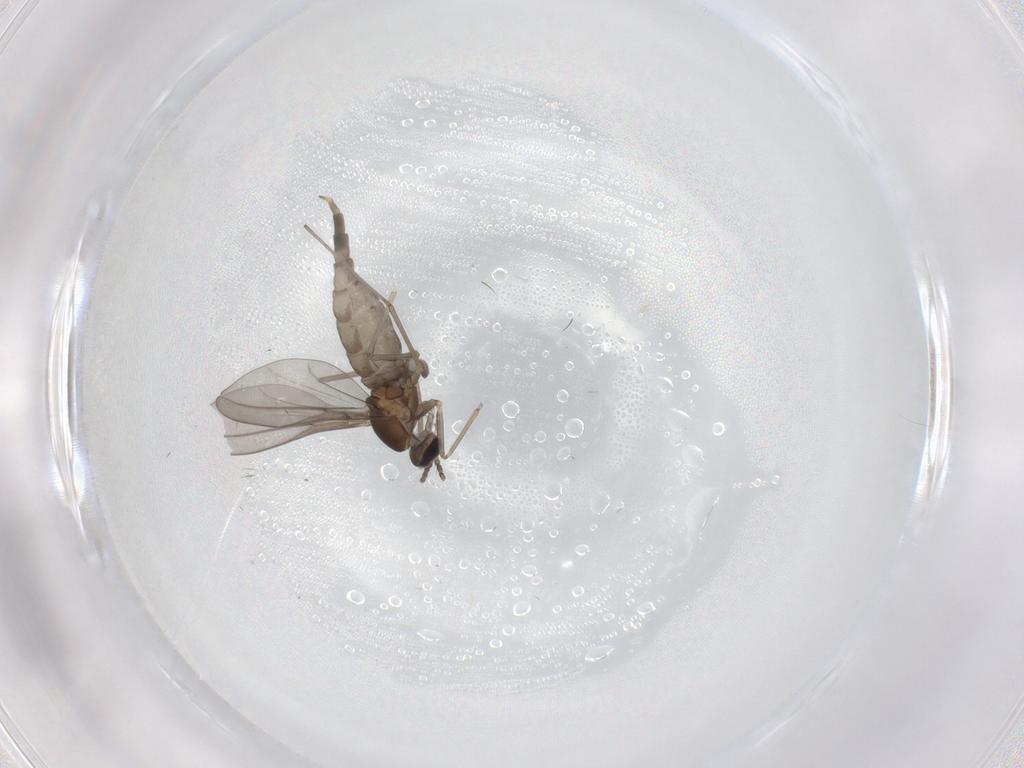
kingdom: Animalia
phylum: Arthropoda
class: Insecta
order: Diptera
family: Cecidomyiidae
